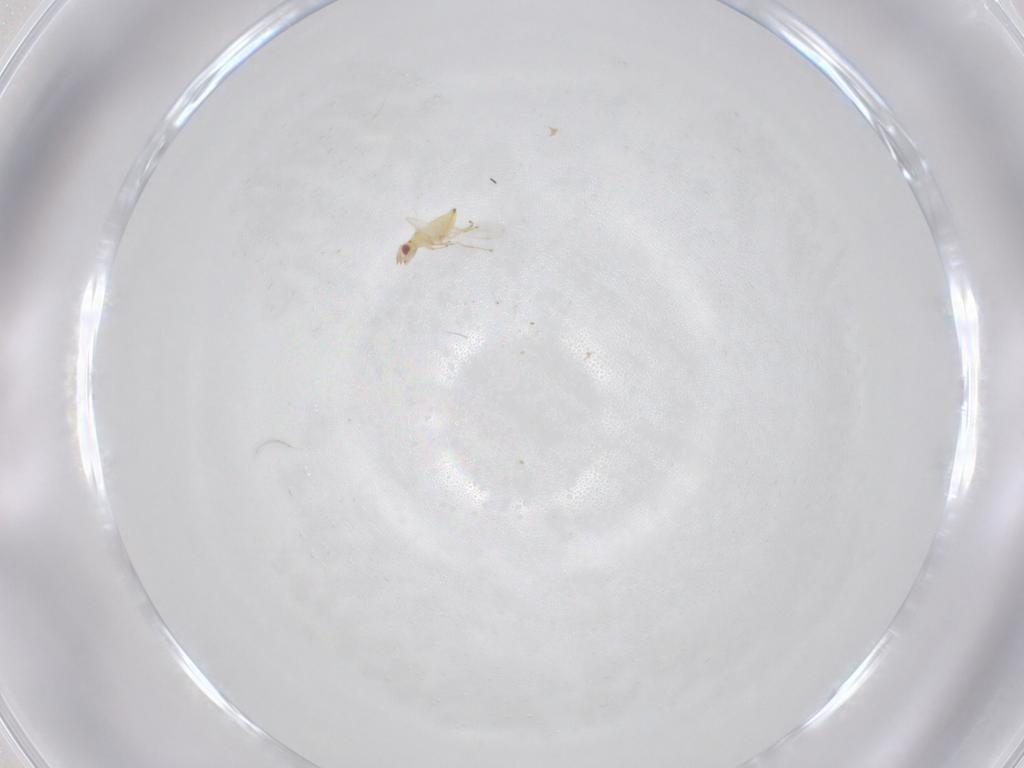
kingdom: Animalia
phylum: Arthropoda
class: Insecta
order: Hymenoptera
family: Pteromalidae
